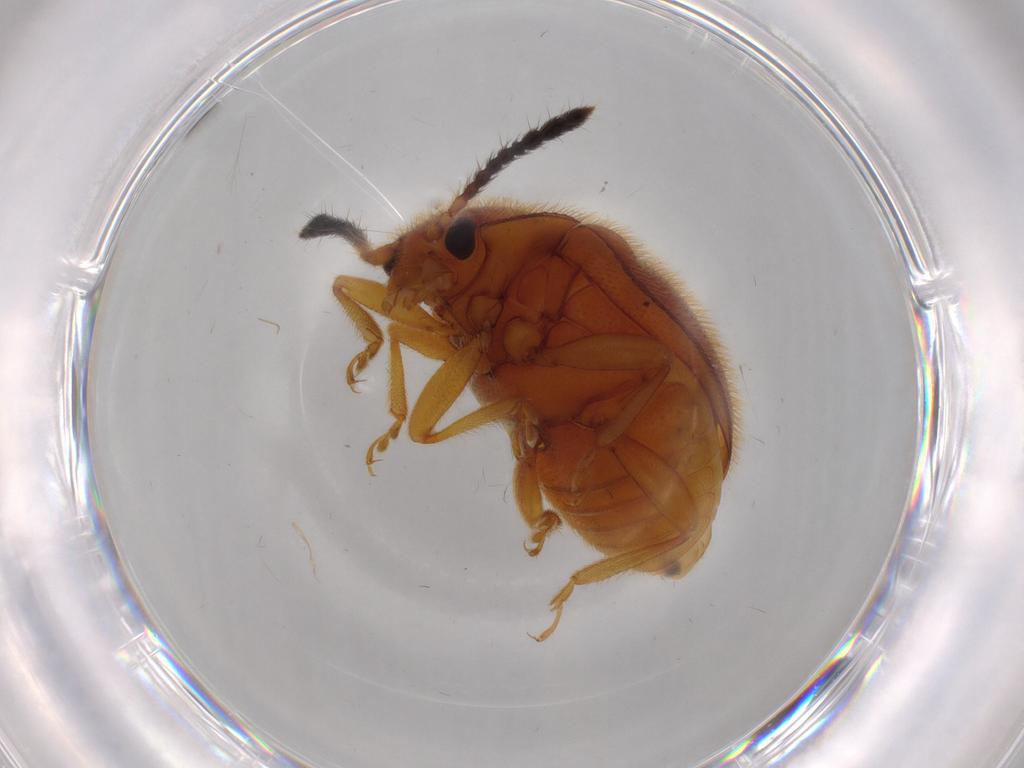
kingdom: Animalia
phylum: Arthropoda
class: Insecta
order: Coleoptera
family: Endomychidae
